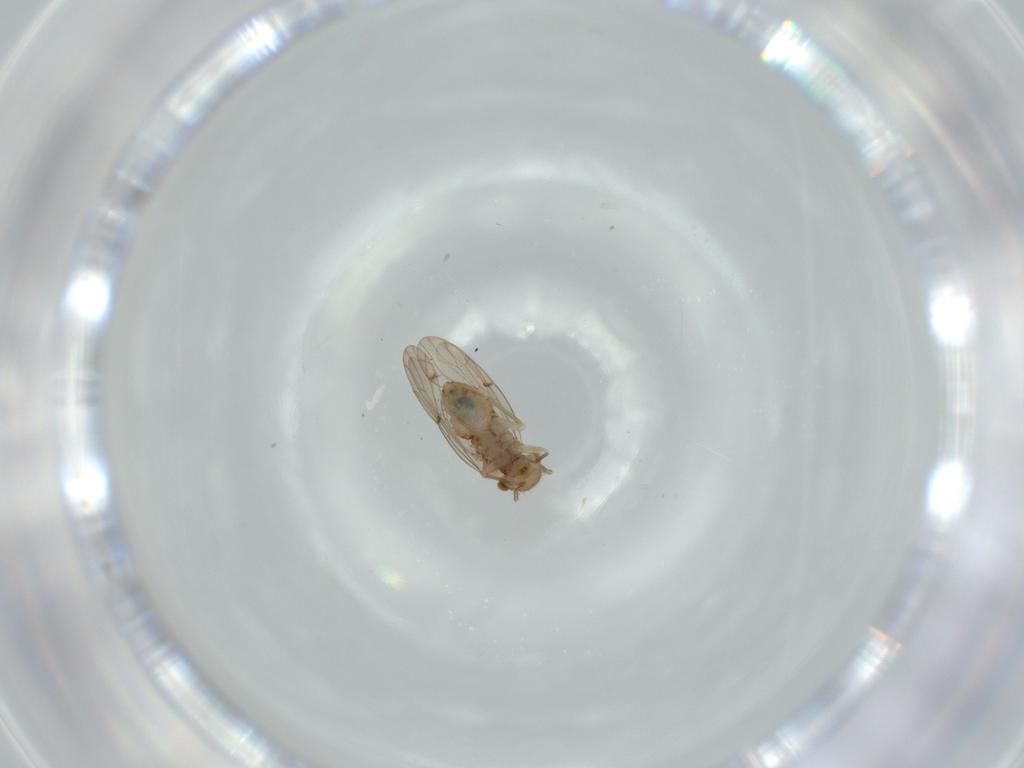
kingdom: Animalia
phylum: Arthropoda
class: Insecta
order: Psocodea
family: Ectopsocidae
